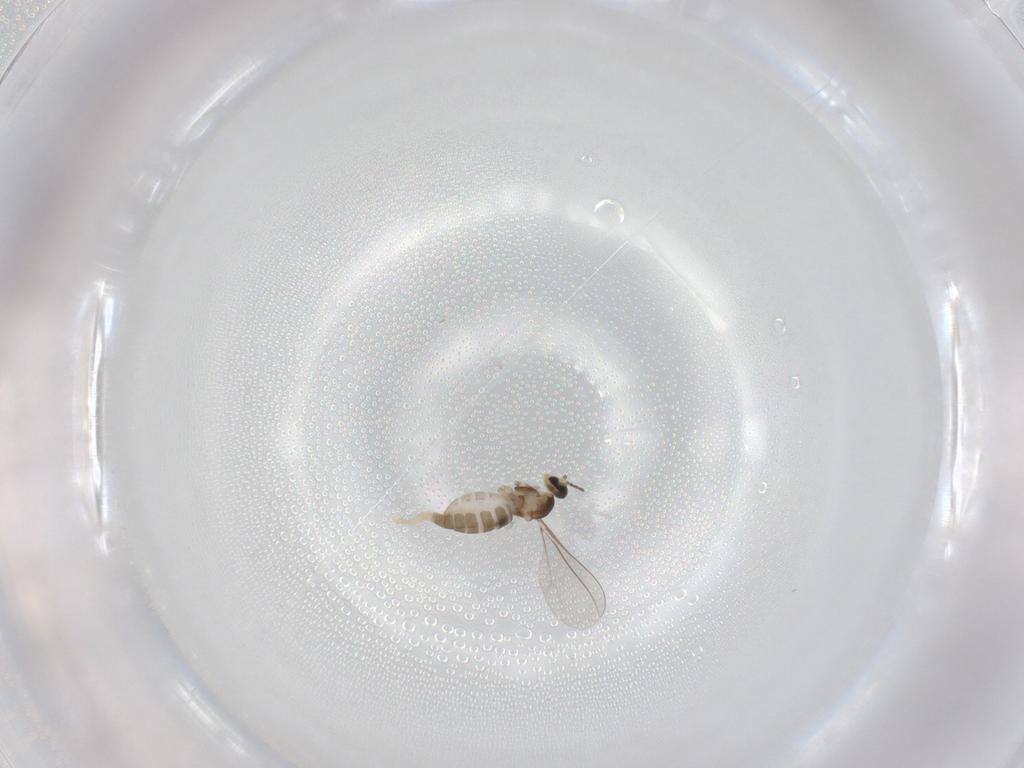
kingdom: Animalia
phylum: Arthropoda
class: Insecta
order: Diptera
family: Cecidomyiidae
